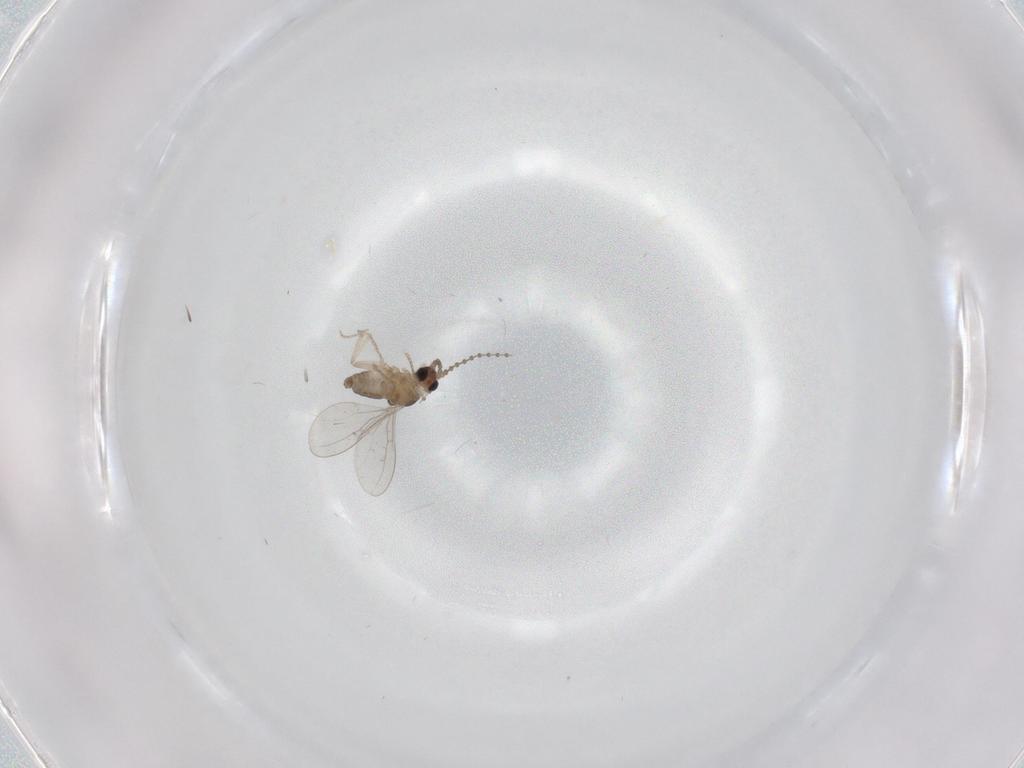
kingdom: Animalia
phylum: Arthropoda
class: Insecta
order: Diptera
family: Cecidomyiidae
